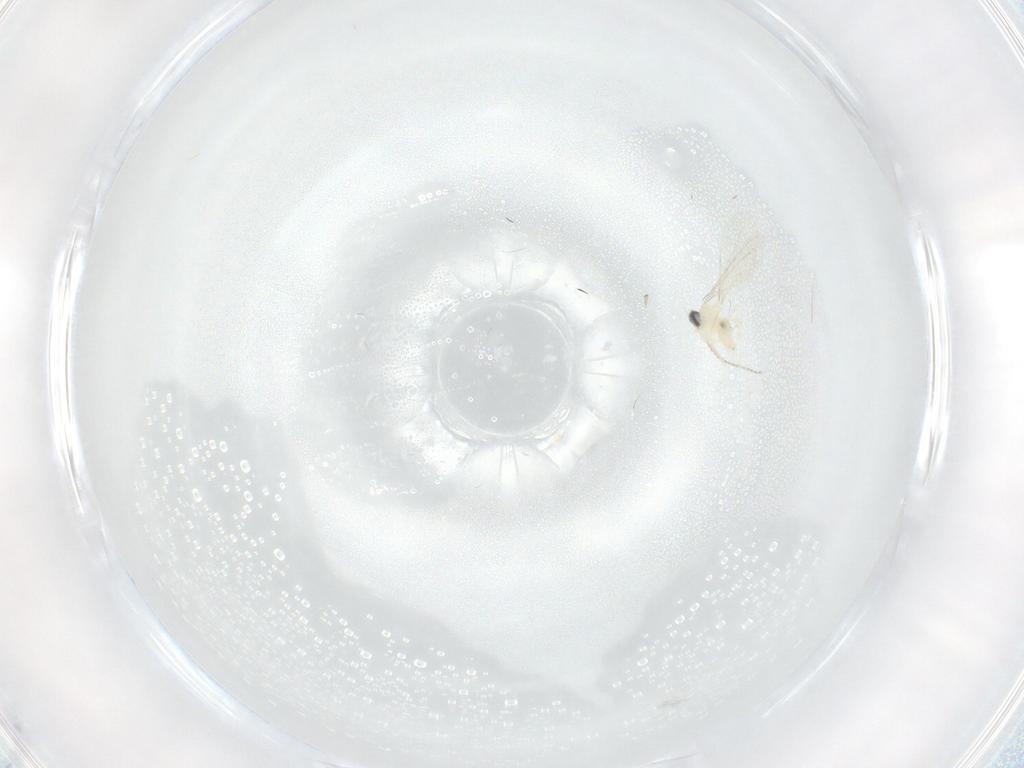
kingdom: Animalia
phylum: Arthropoda
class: Insecta
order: Diptera
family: Cecidomyiidae
